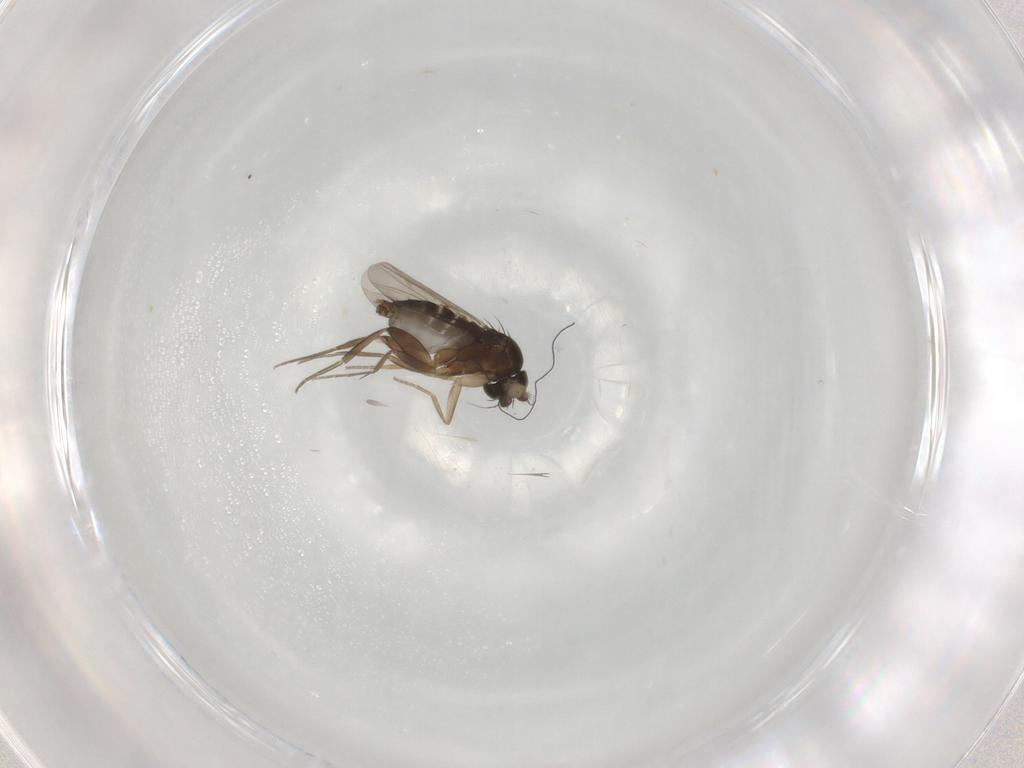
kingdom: Animalia
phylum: Arthropoda
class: Insecta
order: Diptera
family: Phoridae
